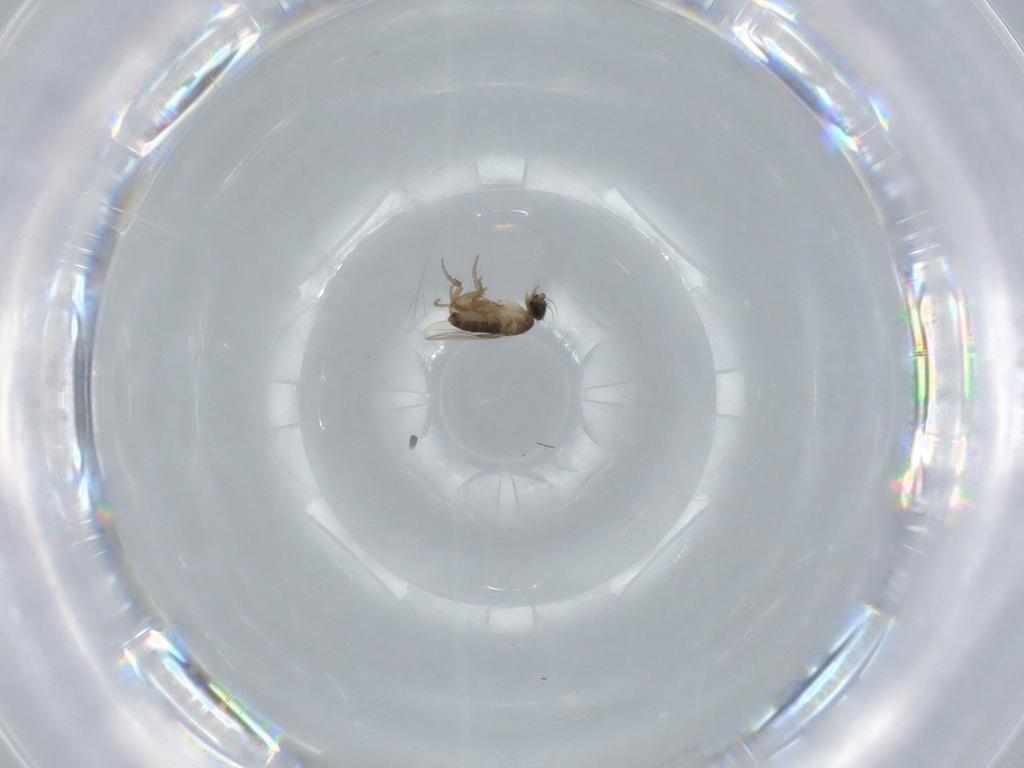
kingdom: Animalia
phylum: Arthropoda
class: Insecta
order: Diptera
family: Phoridae
